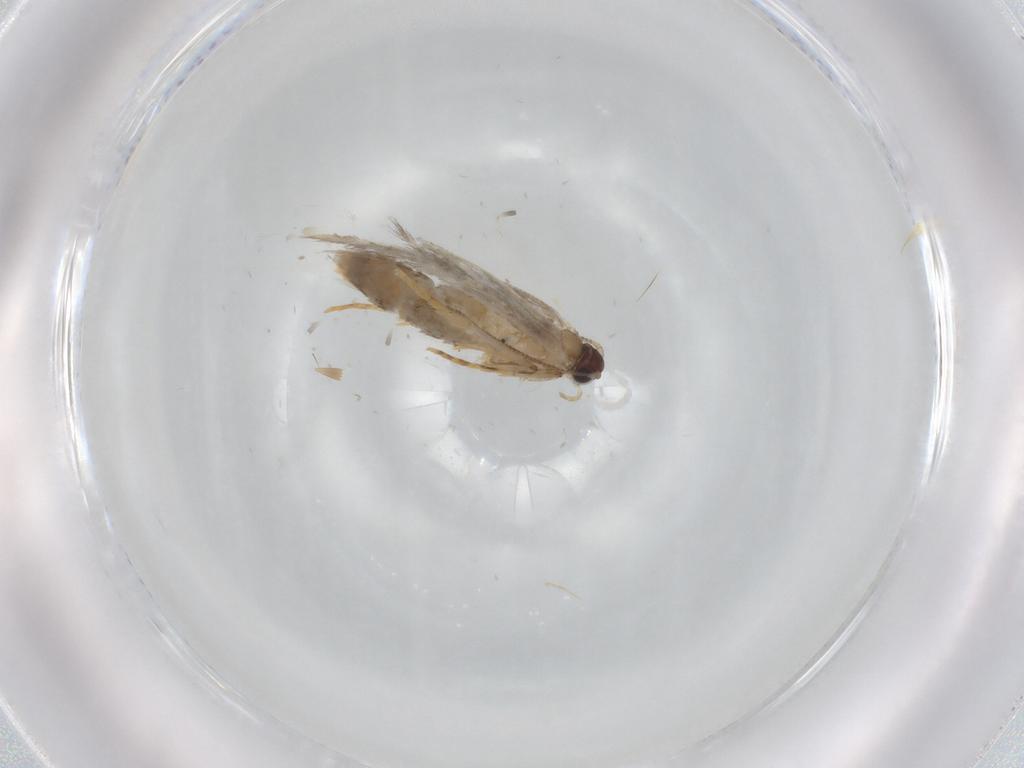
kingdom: Animalia
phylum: Arthropoda
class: Insecta
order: Lepidoptera
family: Tineidae
